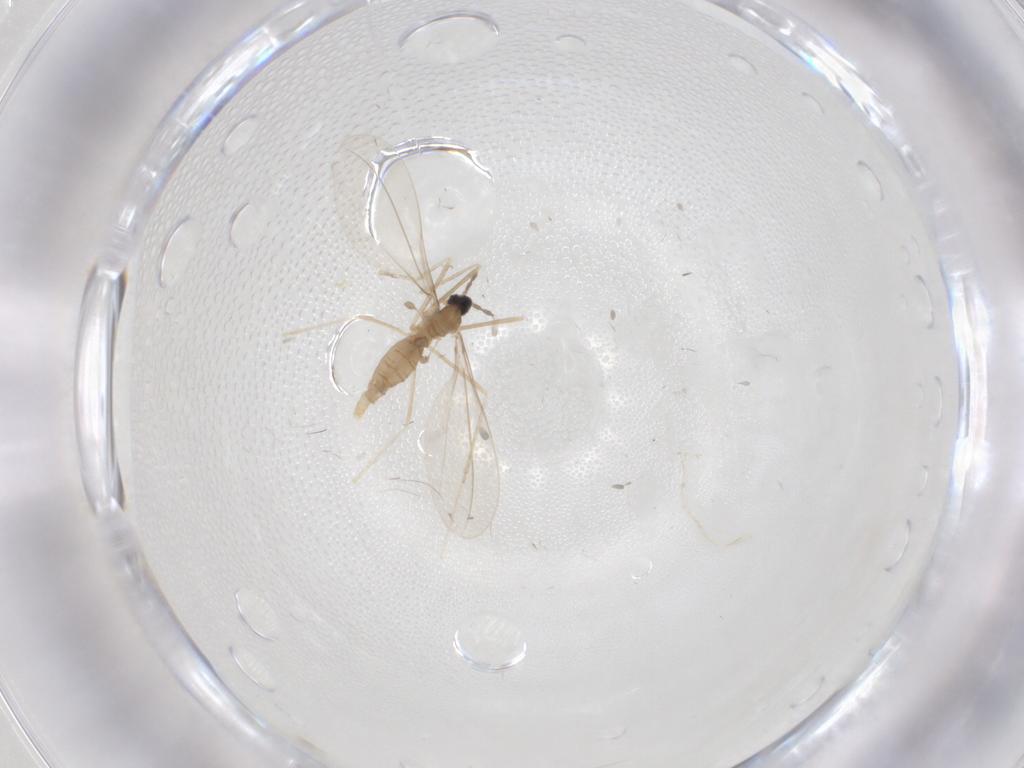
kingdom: Animalia
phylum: Arthropoda
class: Insecta
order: Diptera
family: Cecidomyiidae
